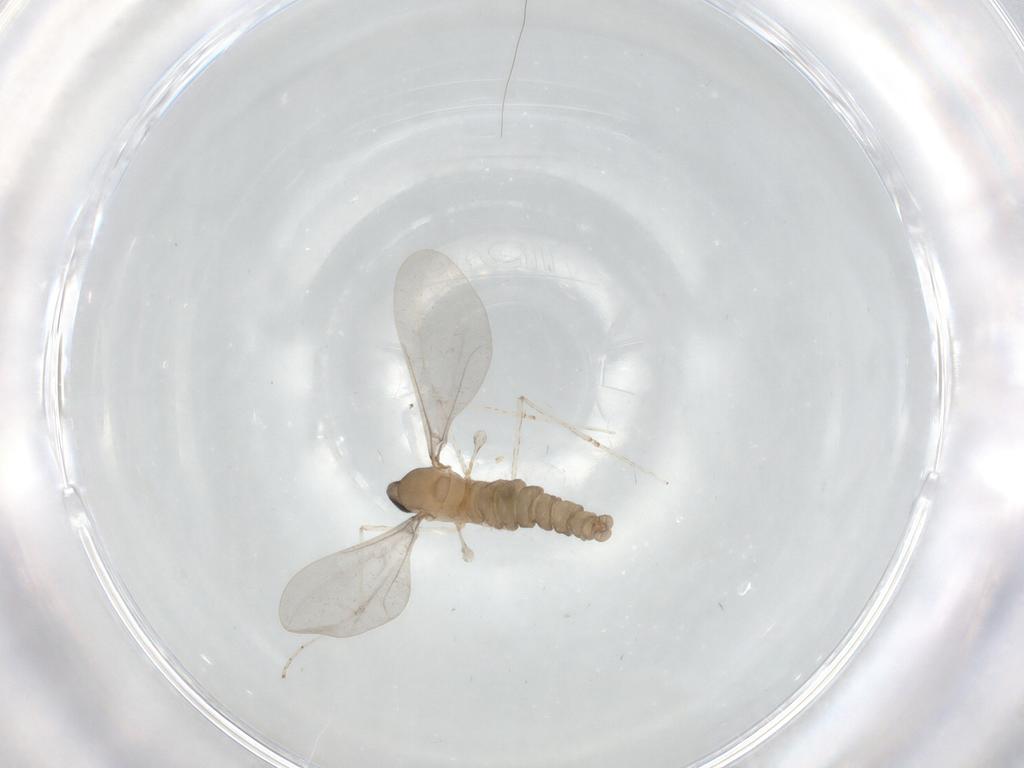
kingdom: Animalia
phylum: Arthropoda
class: Insecta
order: Diptera
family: Cecidomyiidae
